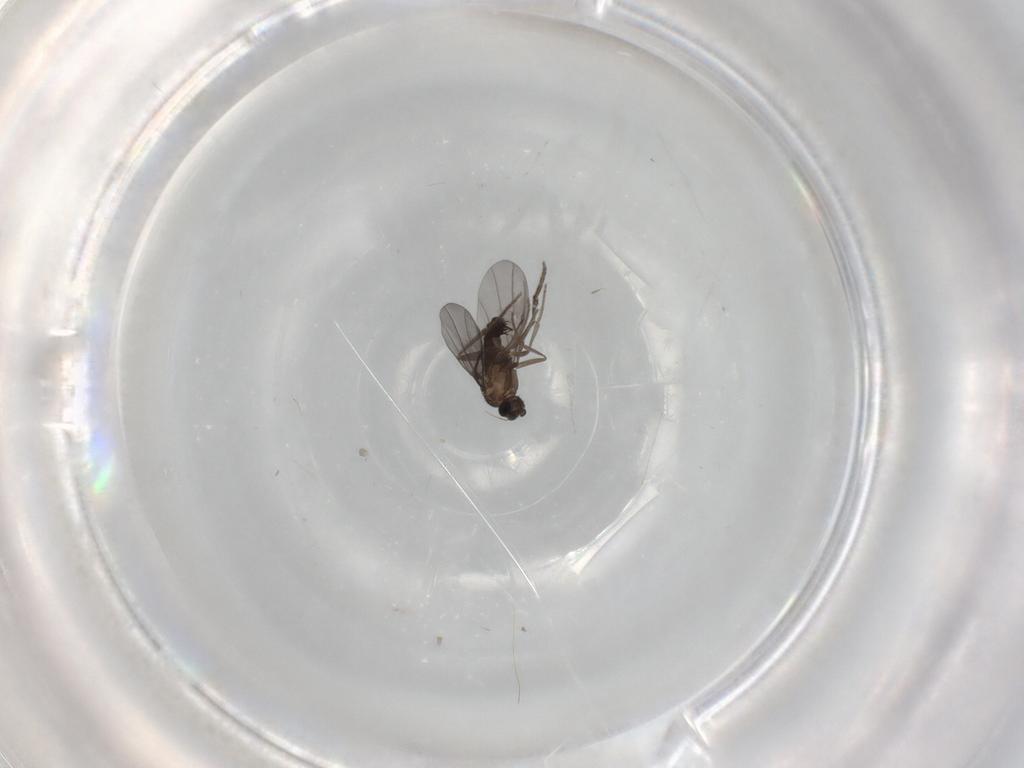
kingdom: Animalia
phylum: Arthropoda
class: Insecta
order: Diptera
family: Phoridae
